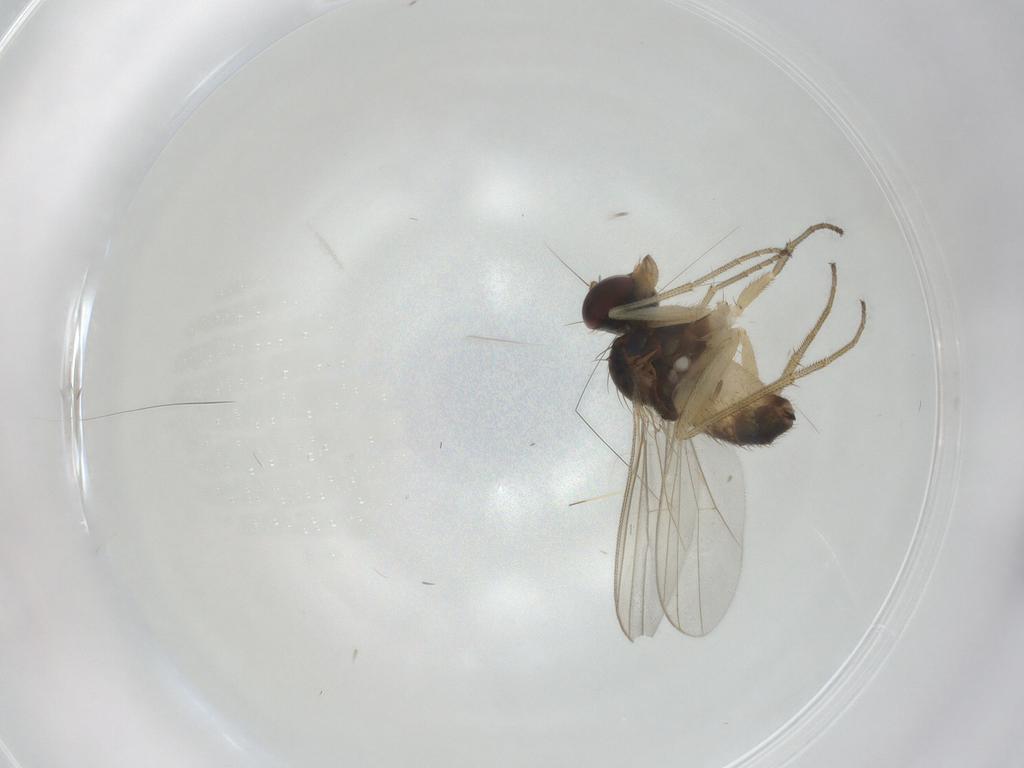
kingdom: Animalia
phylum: Arthropoda
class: Insecta
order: Diptera
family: Dolichopodidae
